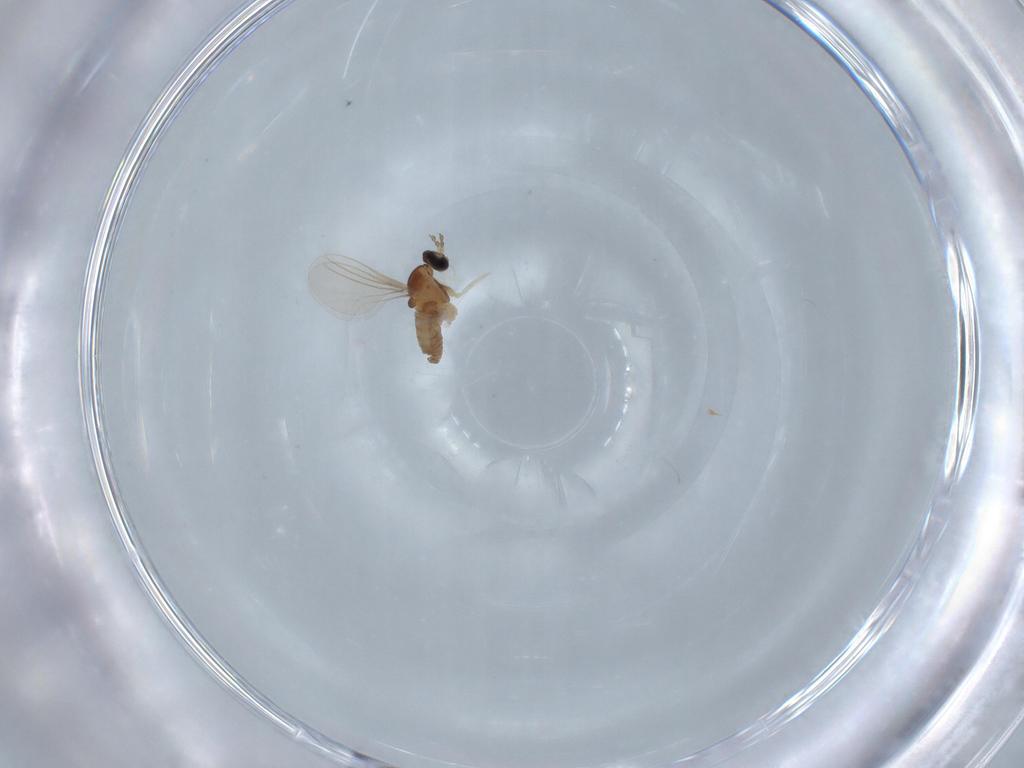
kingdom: Animalia
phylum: Arthropoda
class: Insecta
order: Diptera
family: Cecidomyiidae
